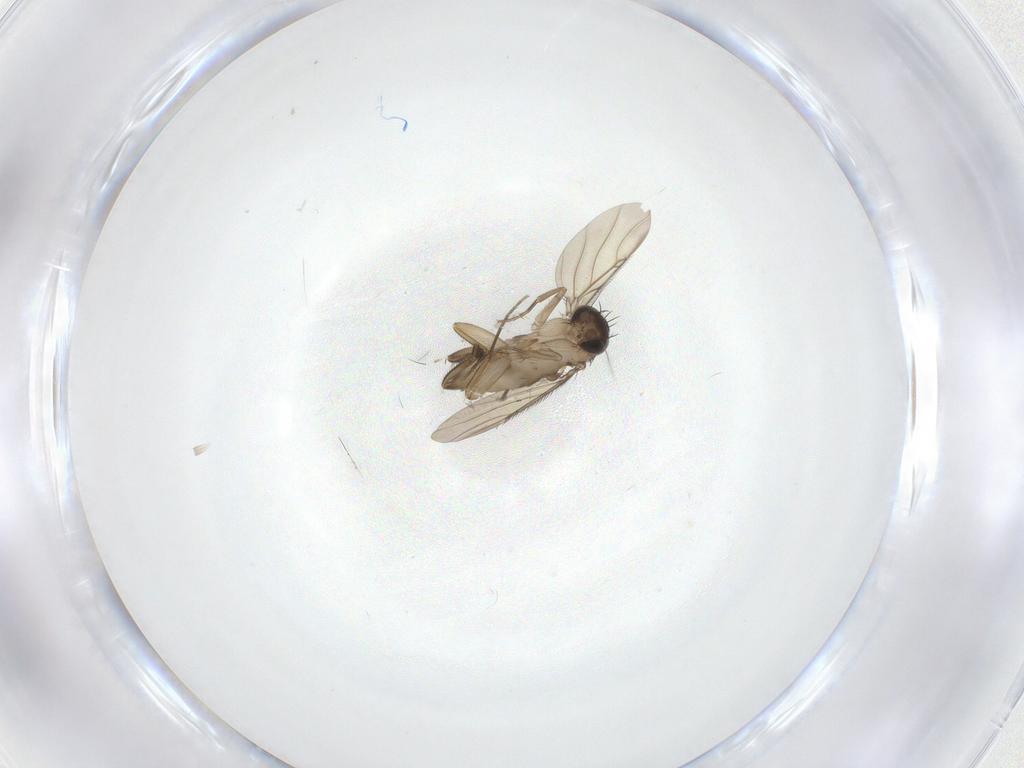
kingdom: Animalia
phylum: Arthropoda
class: Insecta
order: Diptera
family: Phoridae
